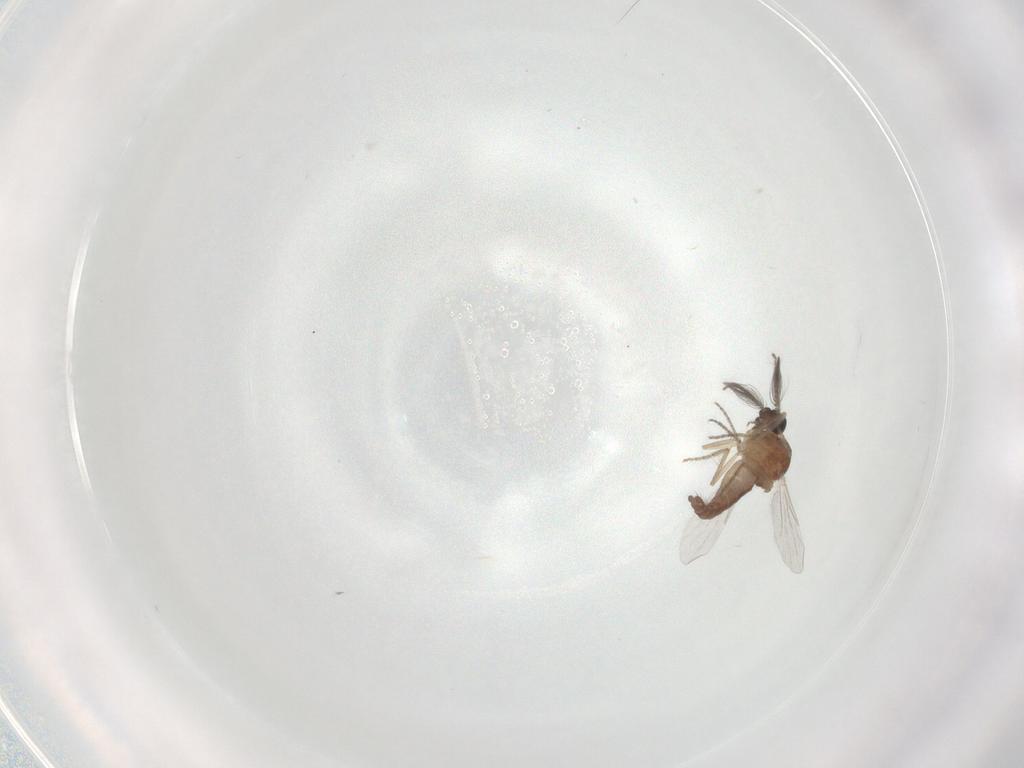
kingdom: Animalia
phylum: Arthropoda
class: Insecta
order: Diptera
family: Ceratopogonidae
